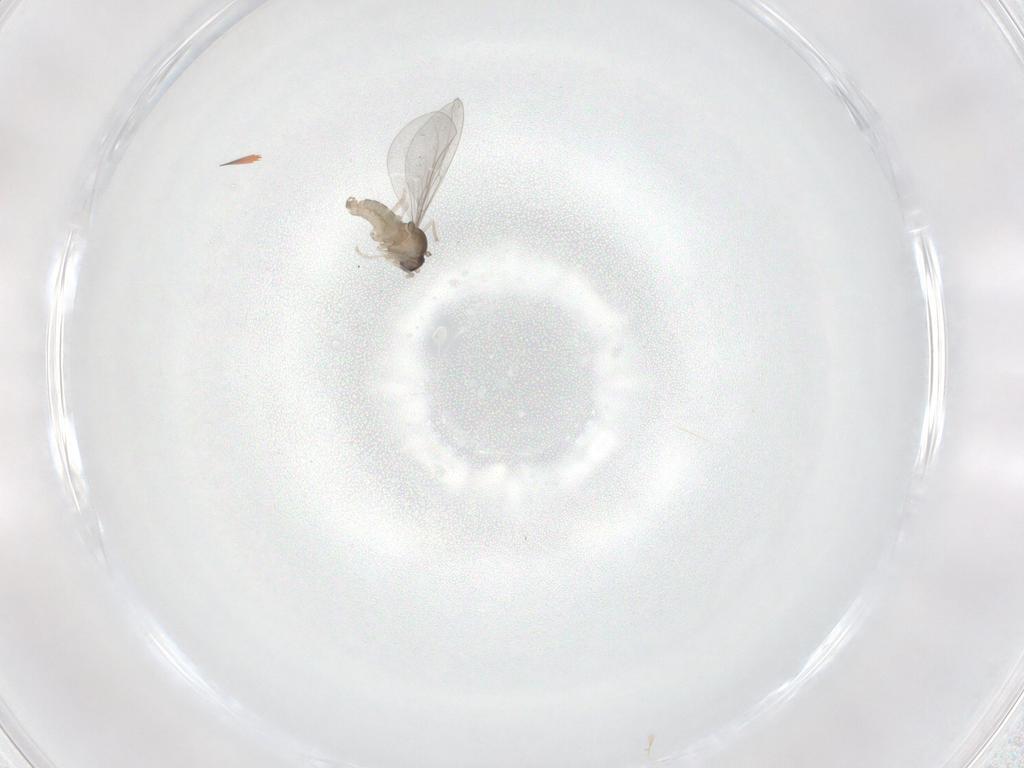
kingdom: Animalia
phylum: Arthropoda
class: Insecta
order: Diptera
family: Cecidomyiidae
